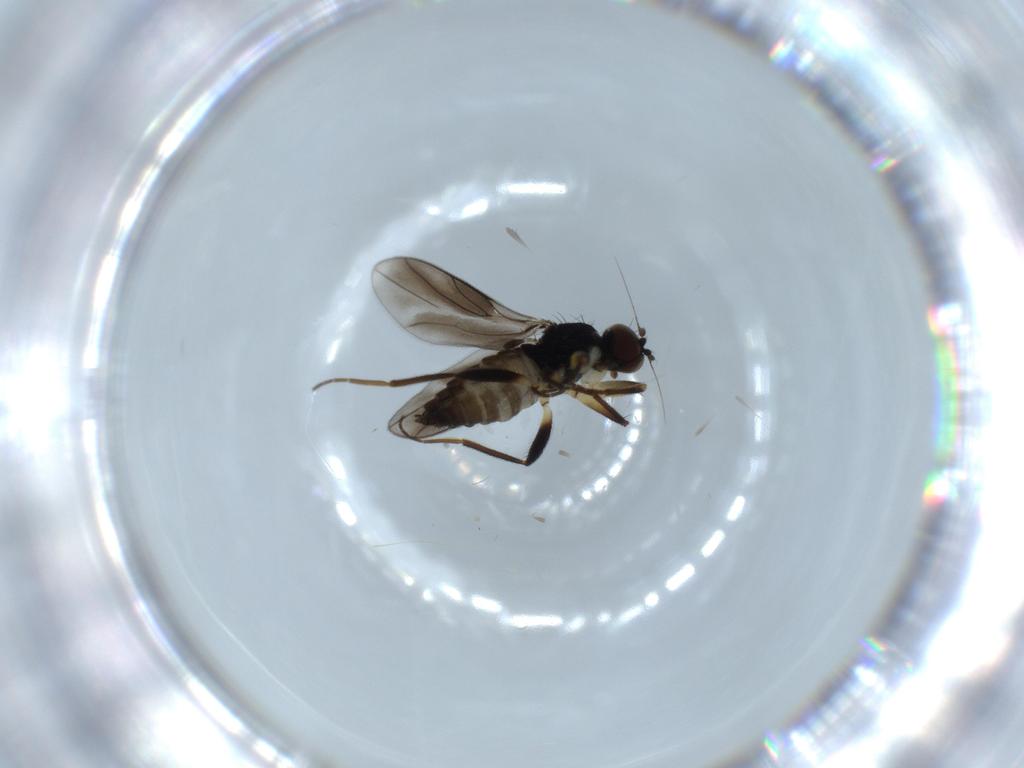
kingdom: Animalia
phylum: Arthropoda
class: Insecta
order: Diptera
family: Hybotidae
